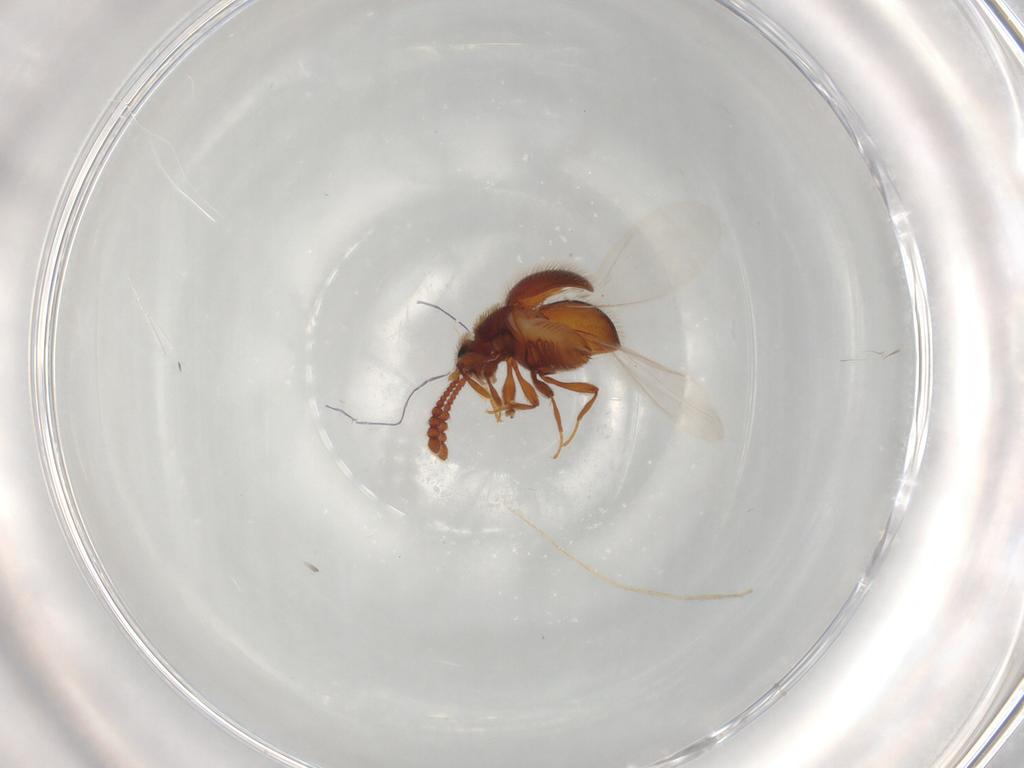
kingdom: Animalia
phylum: Arthropoda
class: Insecta
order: Coleoptera
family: Staphylinidae
